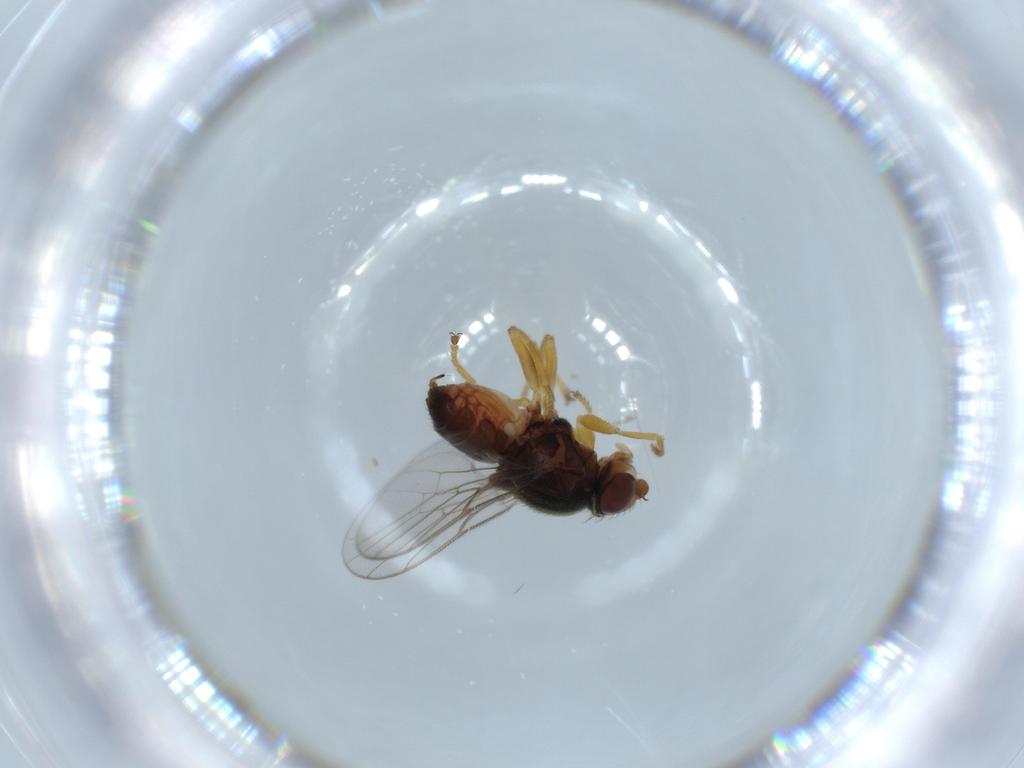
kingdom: Animalia
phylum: Arthropoda
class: Insecta
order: Diptera
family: Chloropidae
